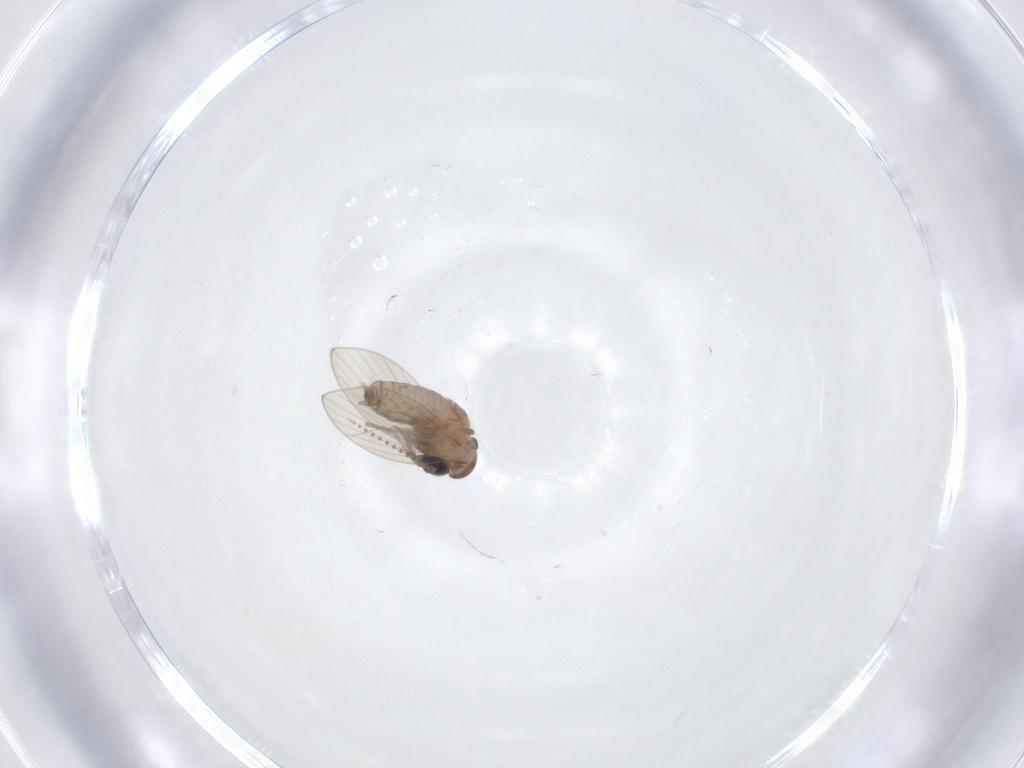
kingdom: Animalia
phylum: Arthropoda
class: Insecta
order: Diptera
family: Psychodidae
